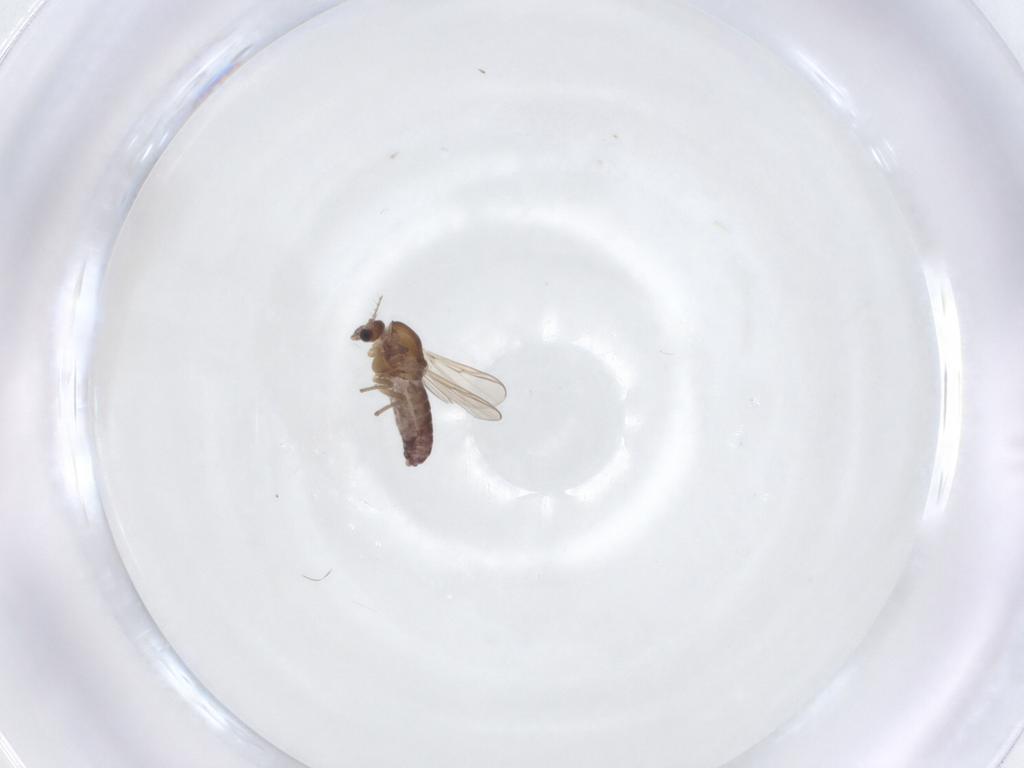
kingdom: Animalia
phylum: Arthropoda
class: Insecta
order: Diptera
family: Chironomidae
